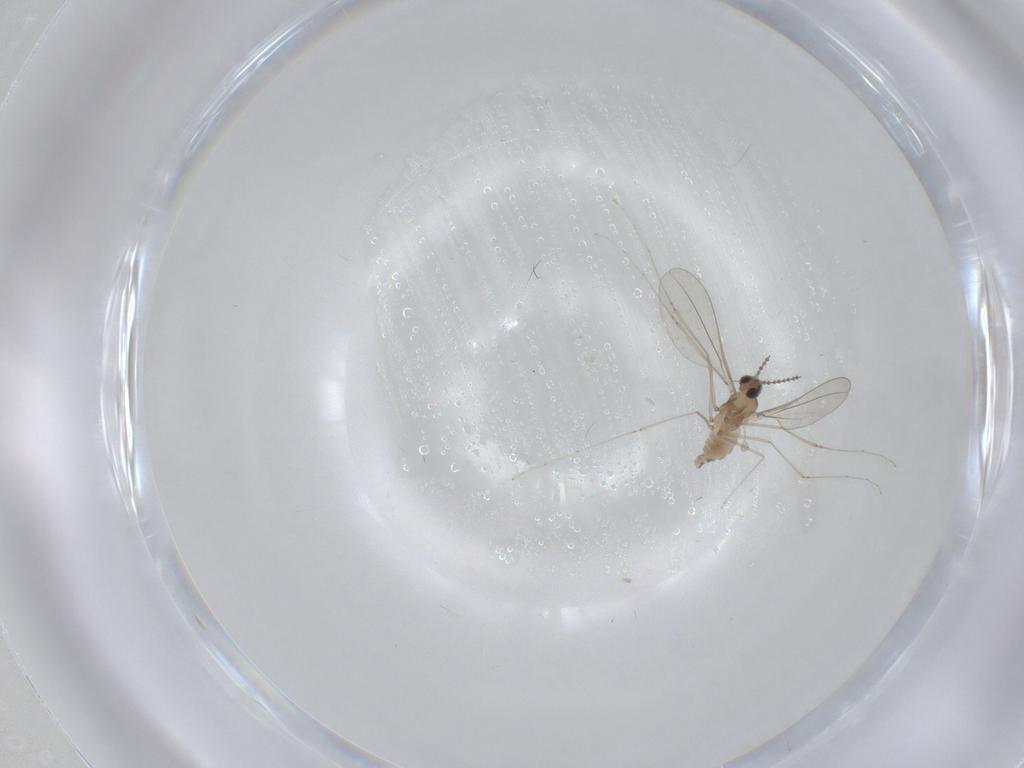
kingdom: Animalia
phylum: Arthropoda
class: Insecta
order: Diptera
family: Cecidomyiidae
